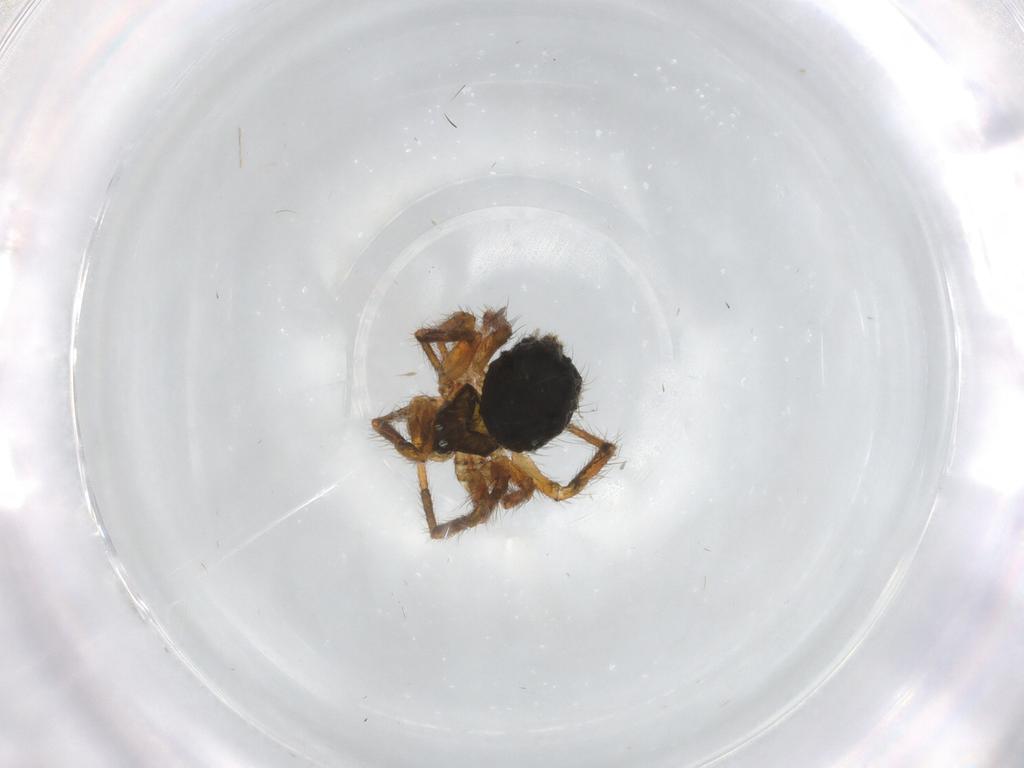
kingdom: Animalia
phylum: Arthropoda
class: Arachnida
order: Araneae
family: Theridiidae
